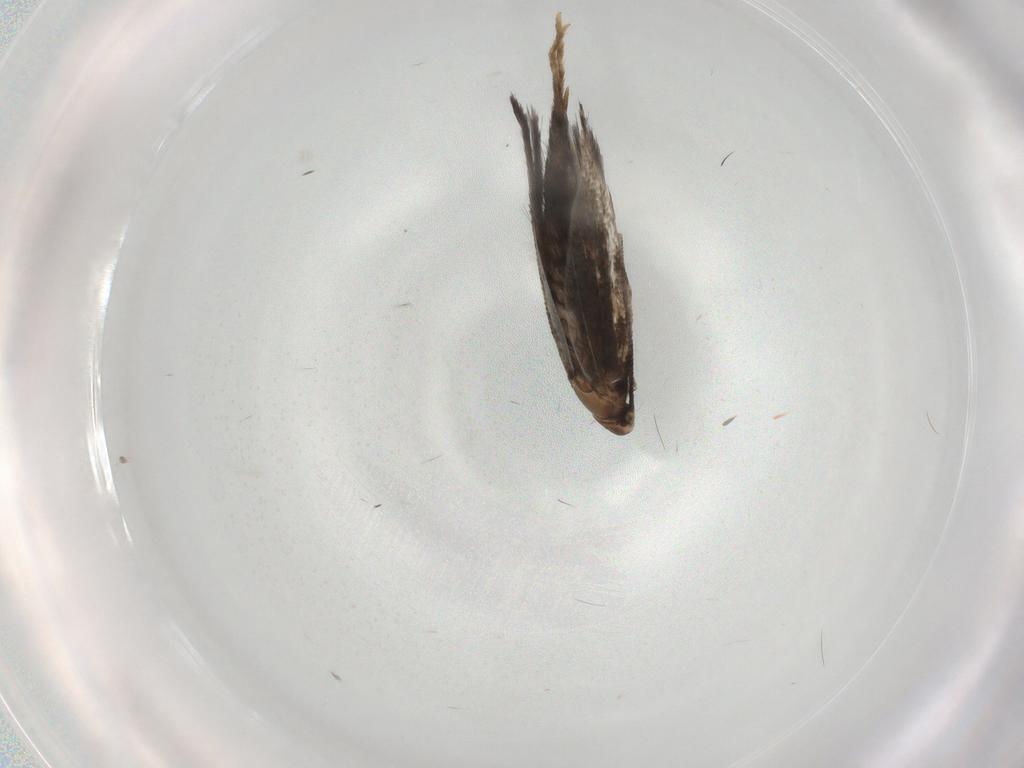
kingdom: Animalia
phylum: Arthropoda
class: Insecta
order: Lepidoptera
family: Gelechiidae
